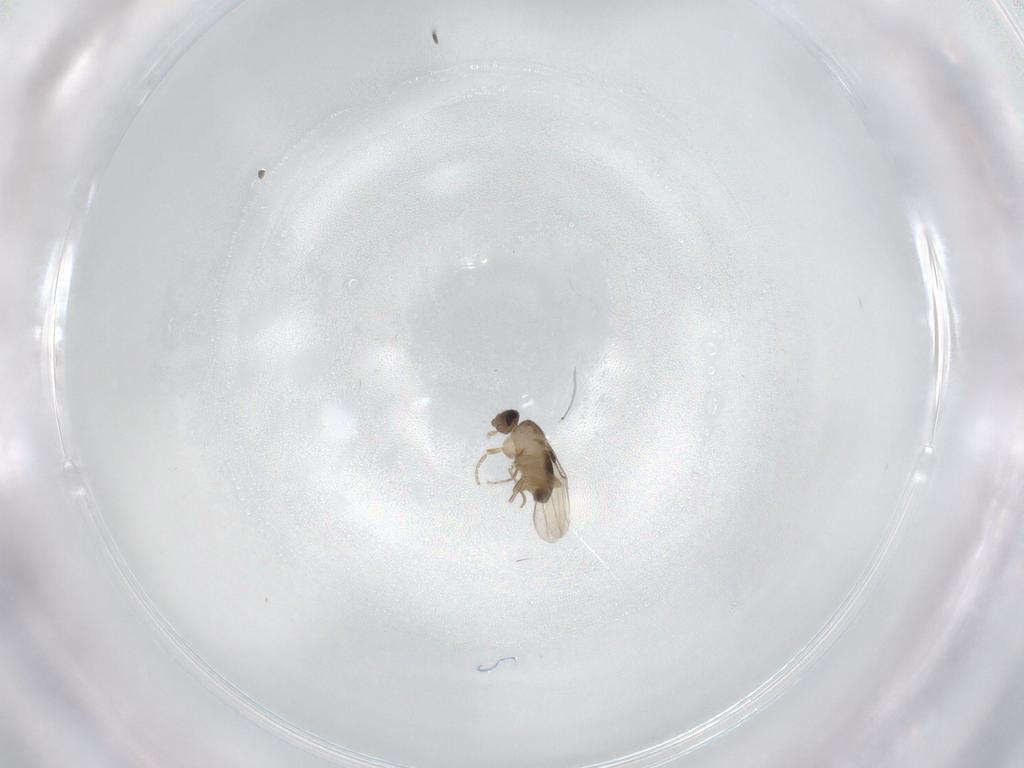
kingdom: Animalia
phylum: Arthropoda
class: Insecta
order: Diptera
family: Phoridae
